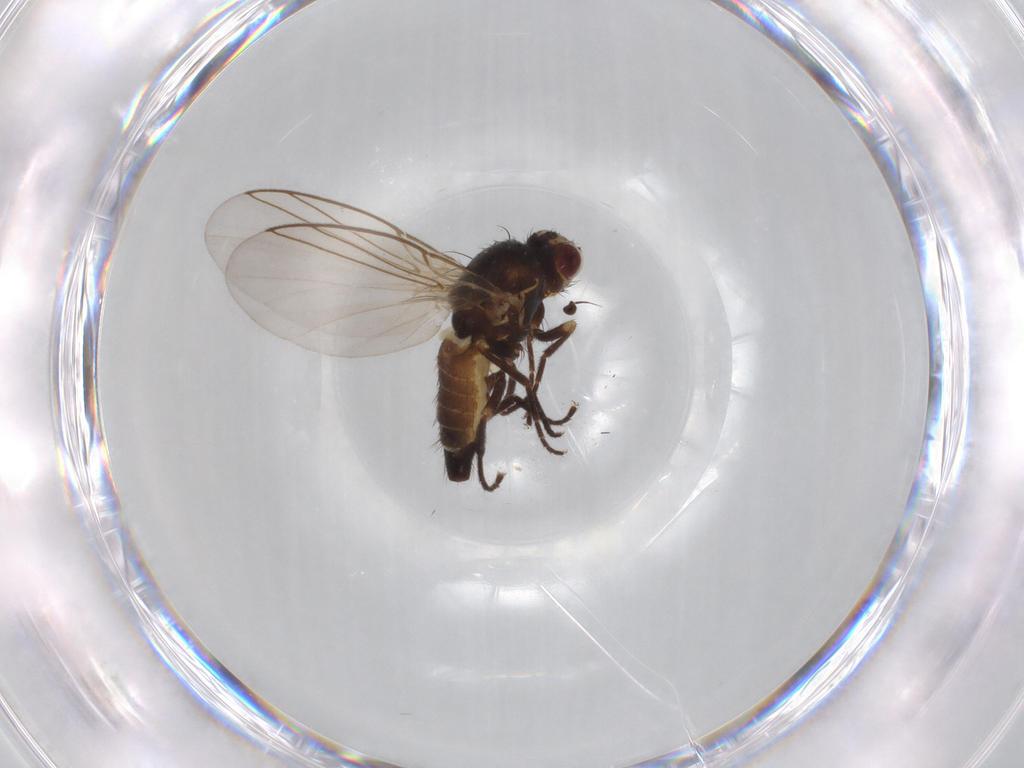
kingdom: Animalia
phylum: Arthropoda
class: Insecta
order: Diptera
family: Agromyzidae
